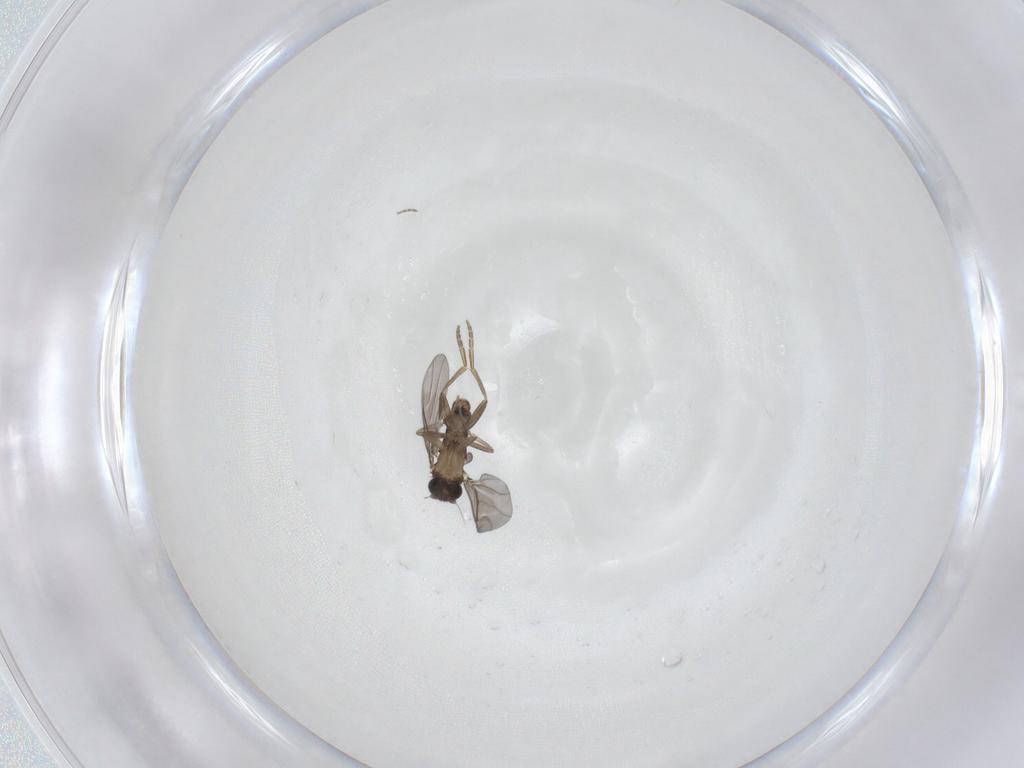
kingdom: Animalia
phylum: Arthropoda
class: Insecta
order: Diptera
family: Sciaridae
